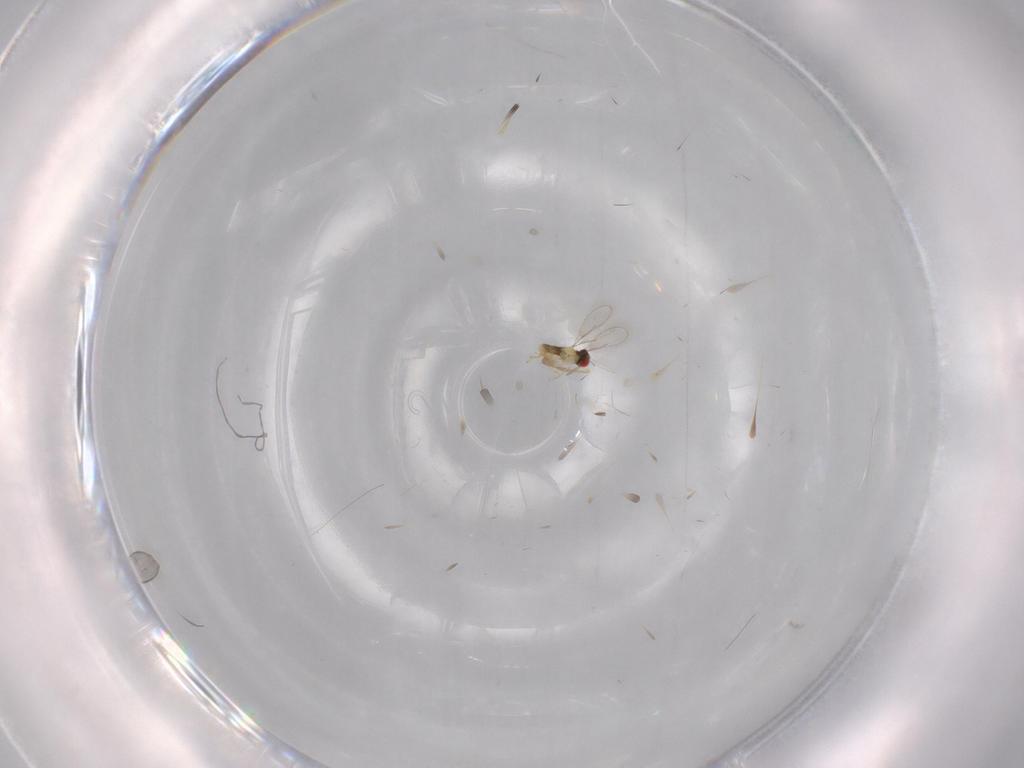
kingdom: Animalia
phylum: Arthropoda
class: Insecta
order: Hymenoptera
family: Aphelinidae
